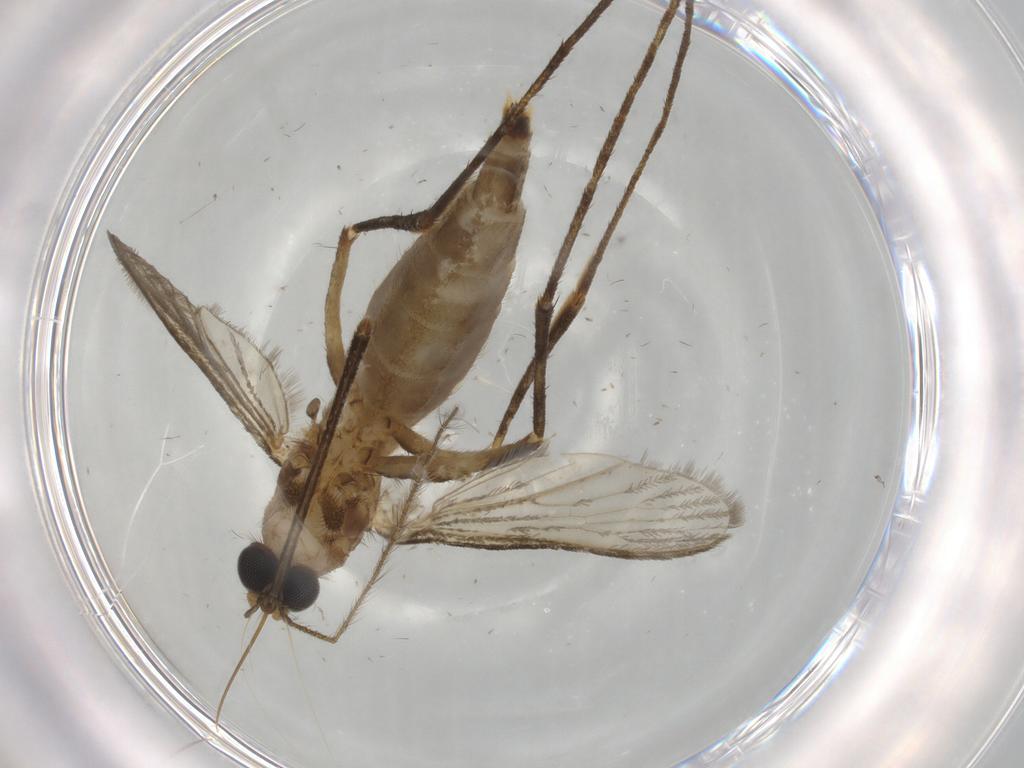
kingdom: Animalia
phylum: Arthropoda
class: Insecta
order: Diptera
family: Culicidae
